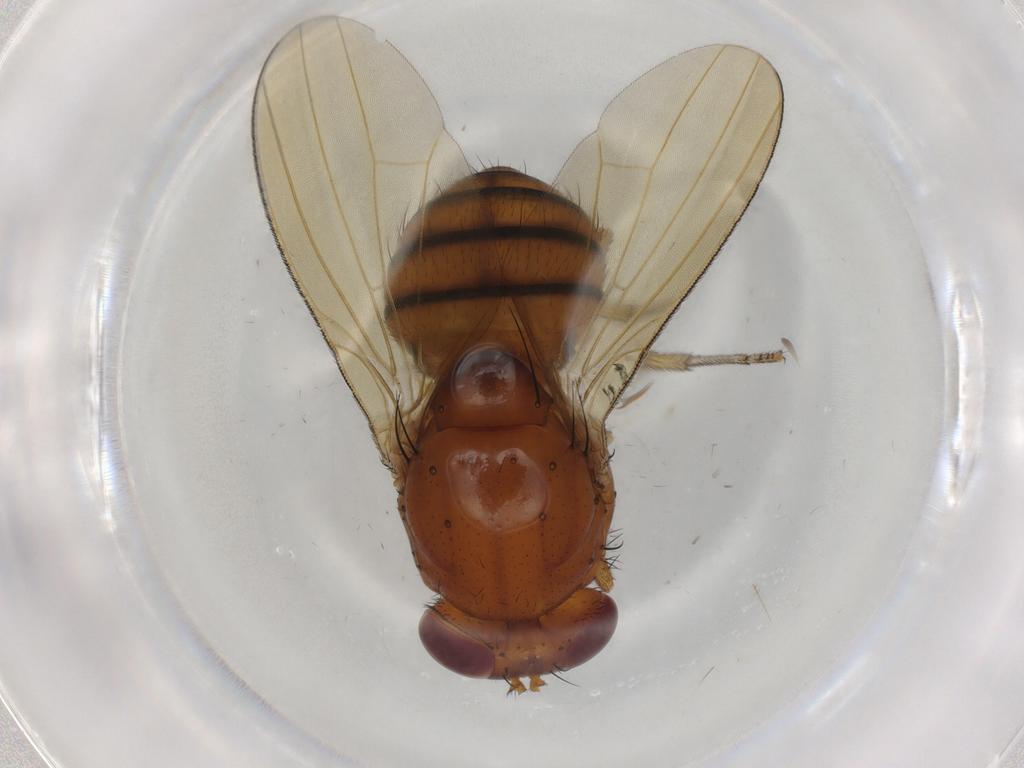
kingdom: Animalia
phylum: Arthropoda
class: Insecta
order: Diptera
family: Lauxaniidae
